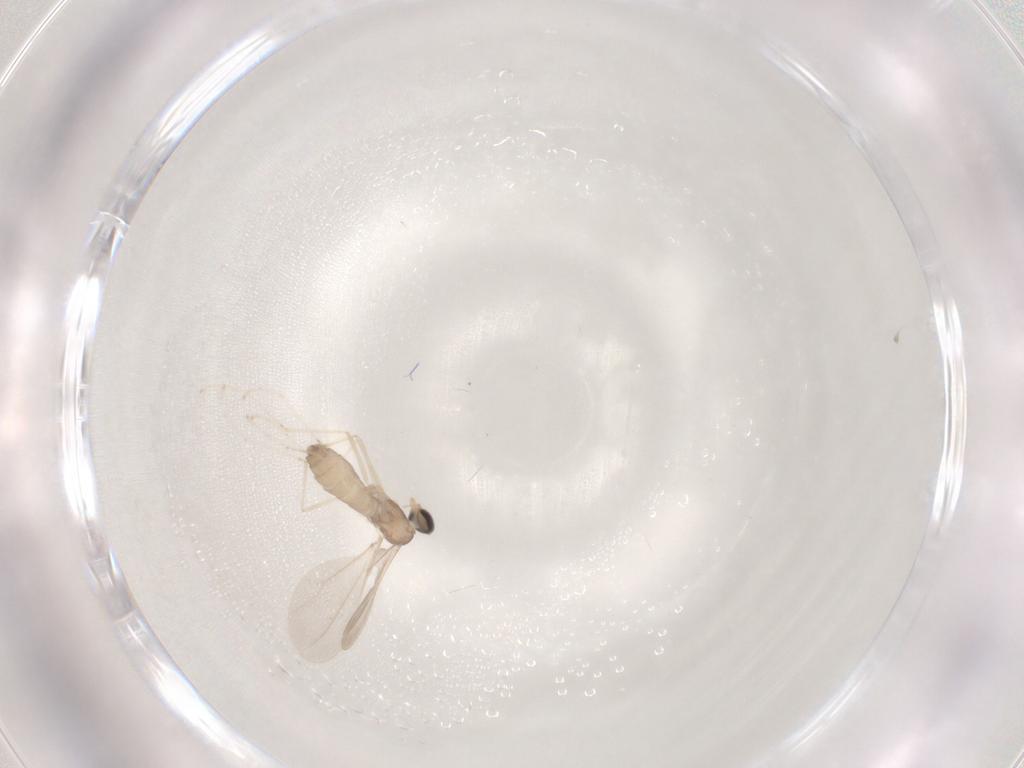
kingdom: Animalia
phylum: Arthropoda
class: Insecta
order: Diptera
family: Cecidomyiidae
